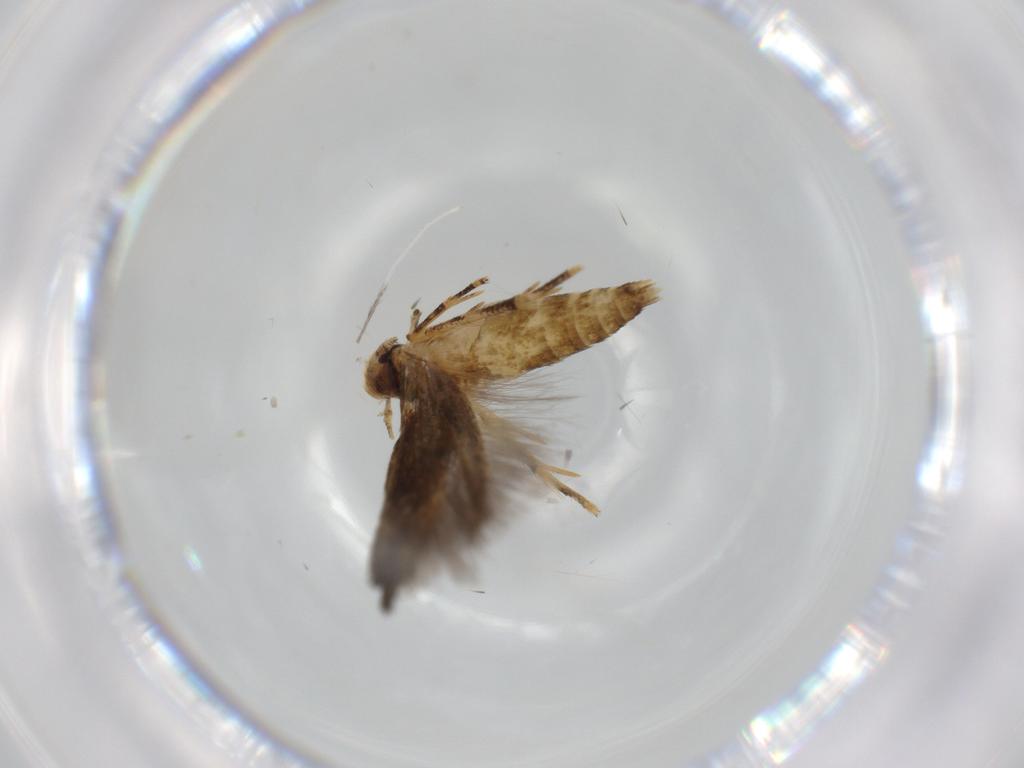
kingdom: Animalia
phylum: Arthropoda
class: Insecta
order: Lepidoptera
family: Momphidae
